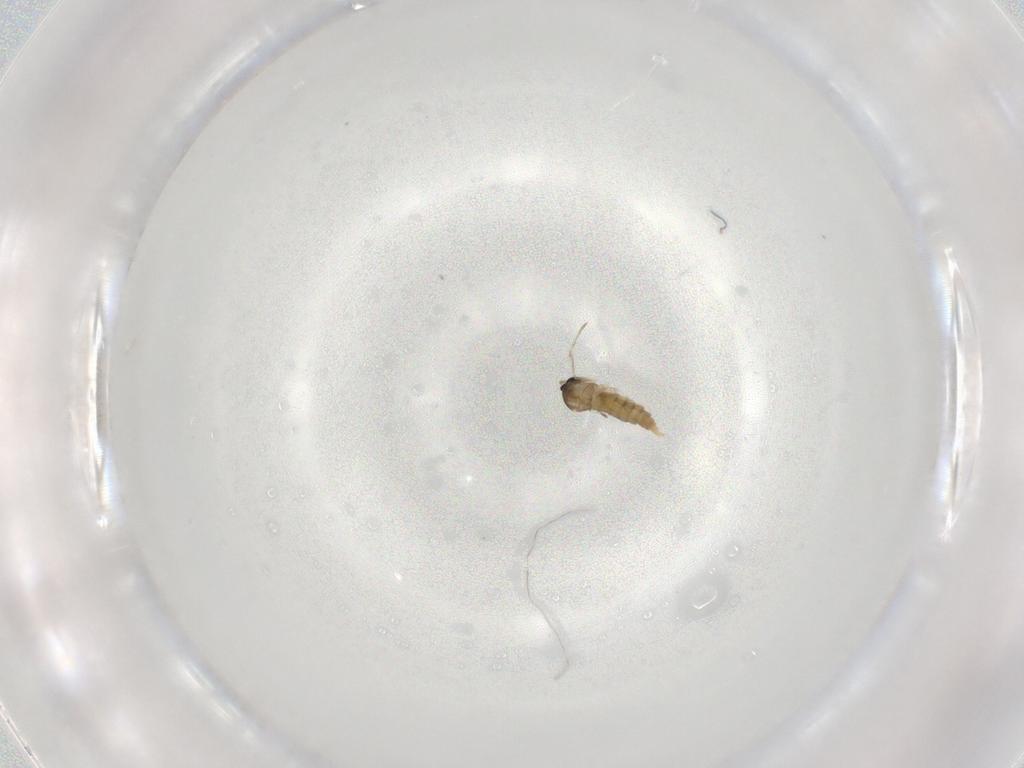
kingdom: Animalia
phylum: Arthropoda
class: Insecta
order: Diptera
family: Cecidomyiidae
